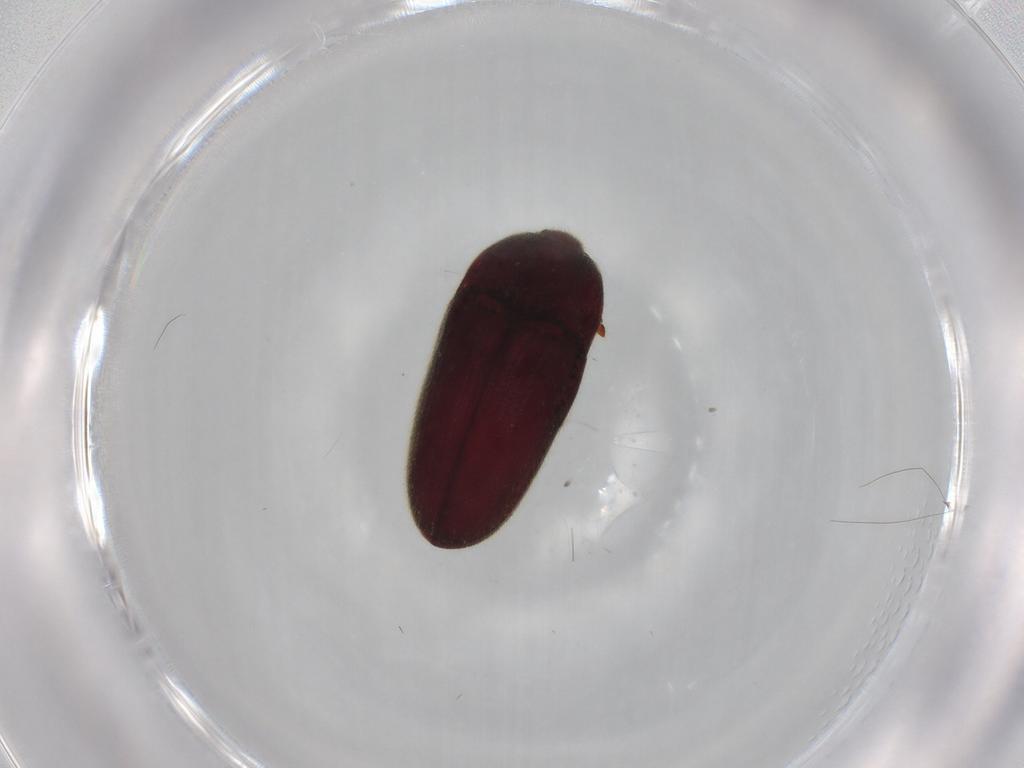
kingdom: Animalia
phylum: Arthropoda
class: Insecta
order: Coleoptera
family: Throscidae
